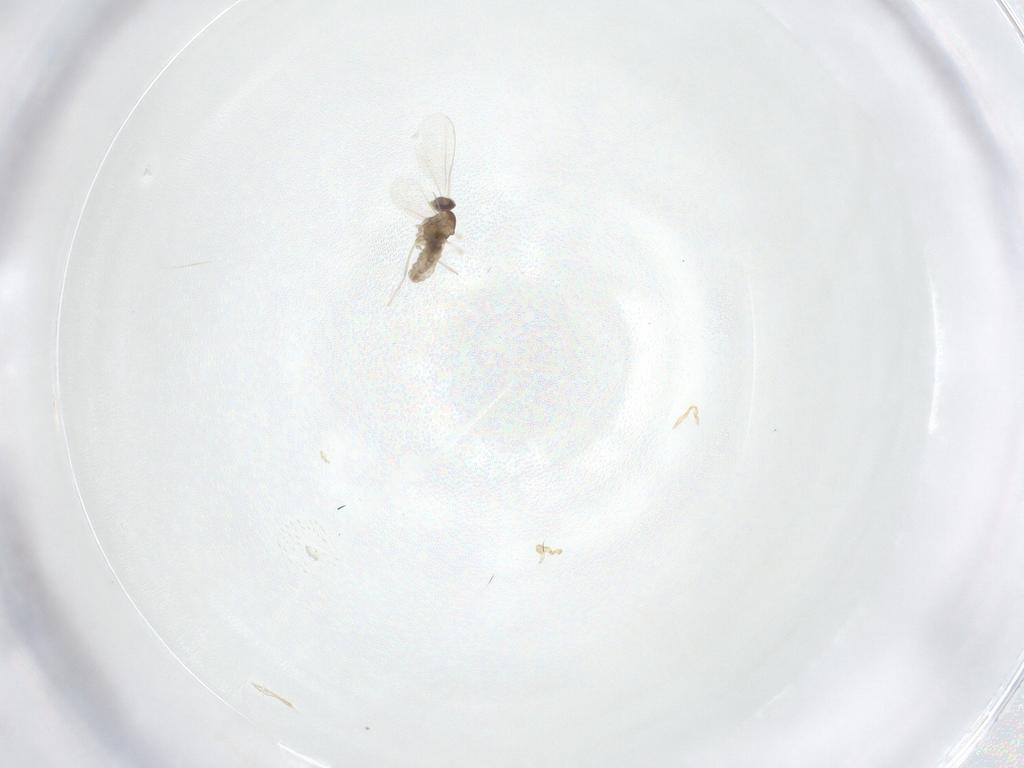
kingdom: Animalia
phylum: Arthropoda
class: Insecta
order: Diptera
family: Cecidomyiidae
